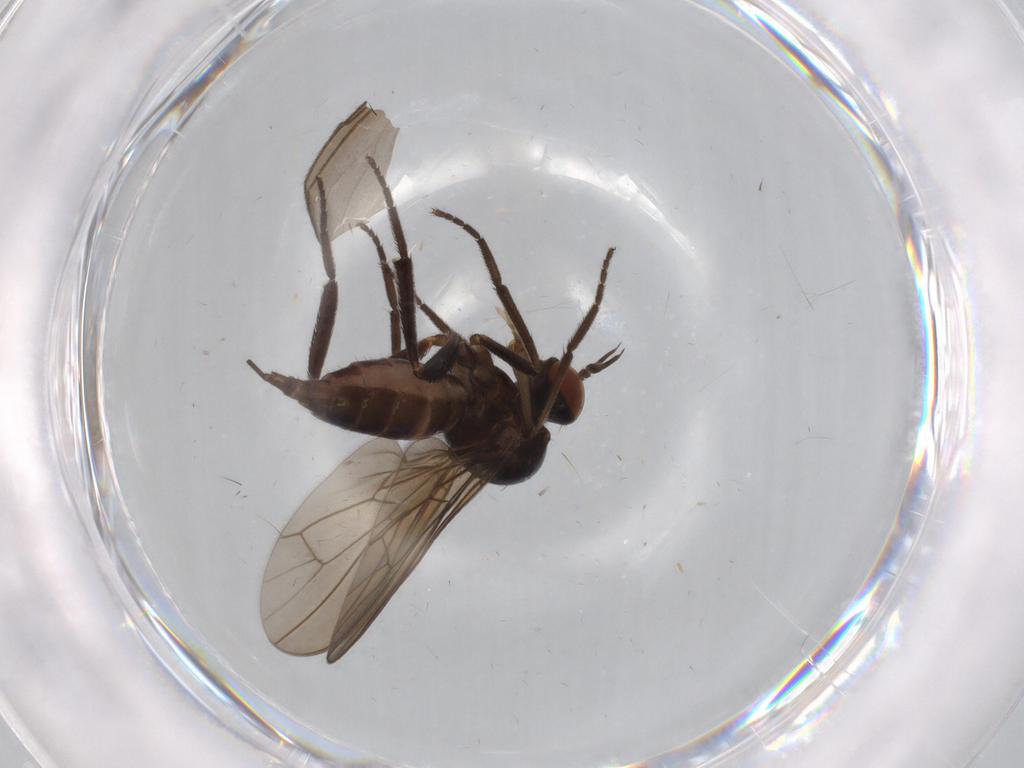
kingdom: Animalia
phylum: Arthropoda
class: Insecta
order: Diptera
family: Empididae
